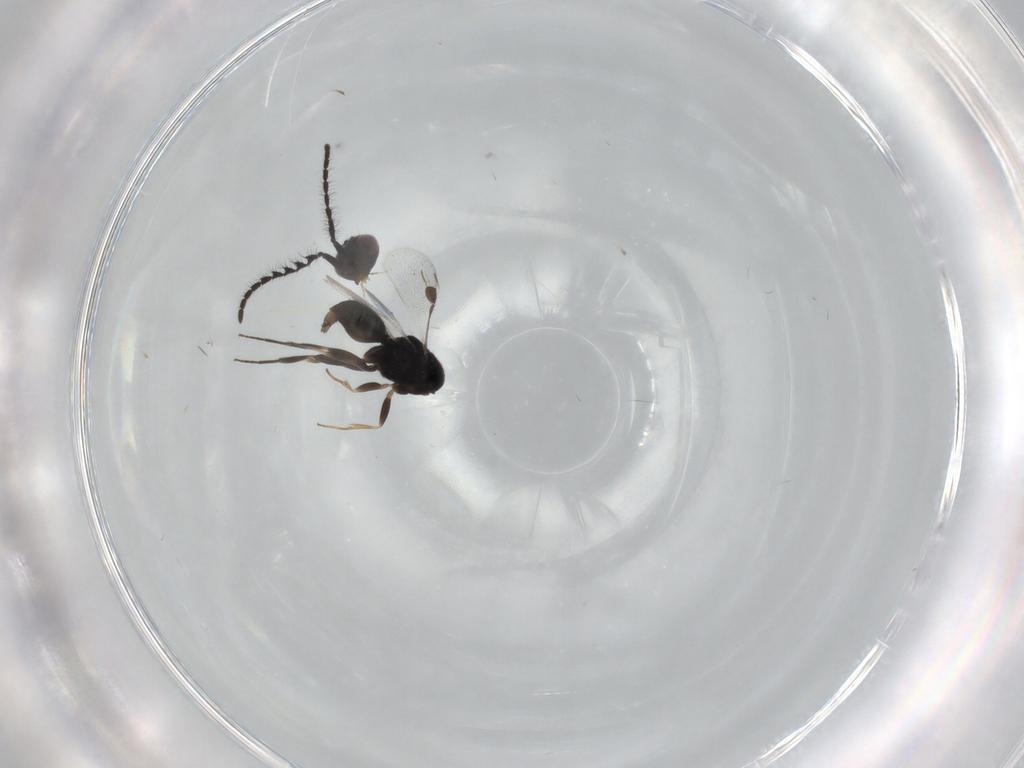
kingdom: Animalia
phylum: Arthropoda
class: Insecta
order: Hymenoptera
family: Megaspilidae
